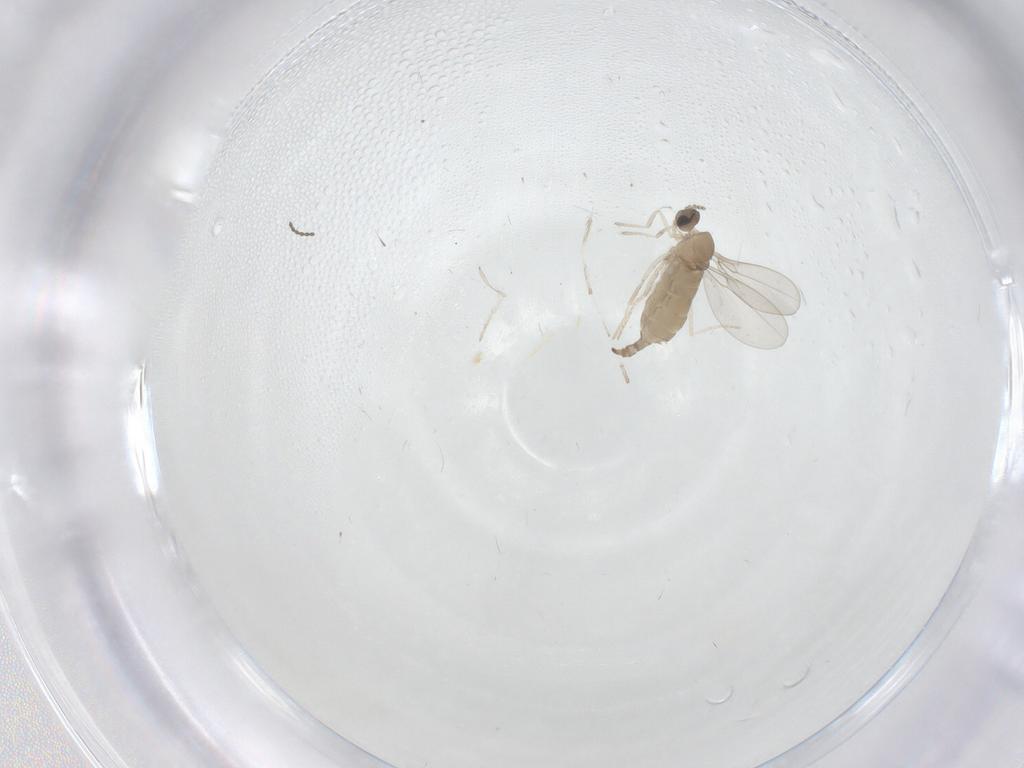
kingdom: Animalia
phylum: Arthropoda
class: Insecta
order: Diptera
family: Cecidomyiidae
